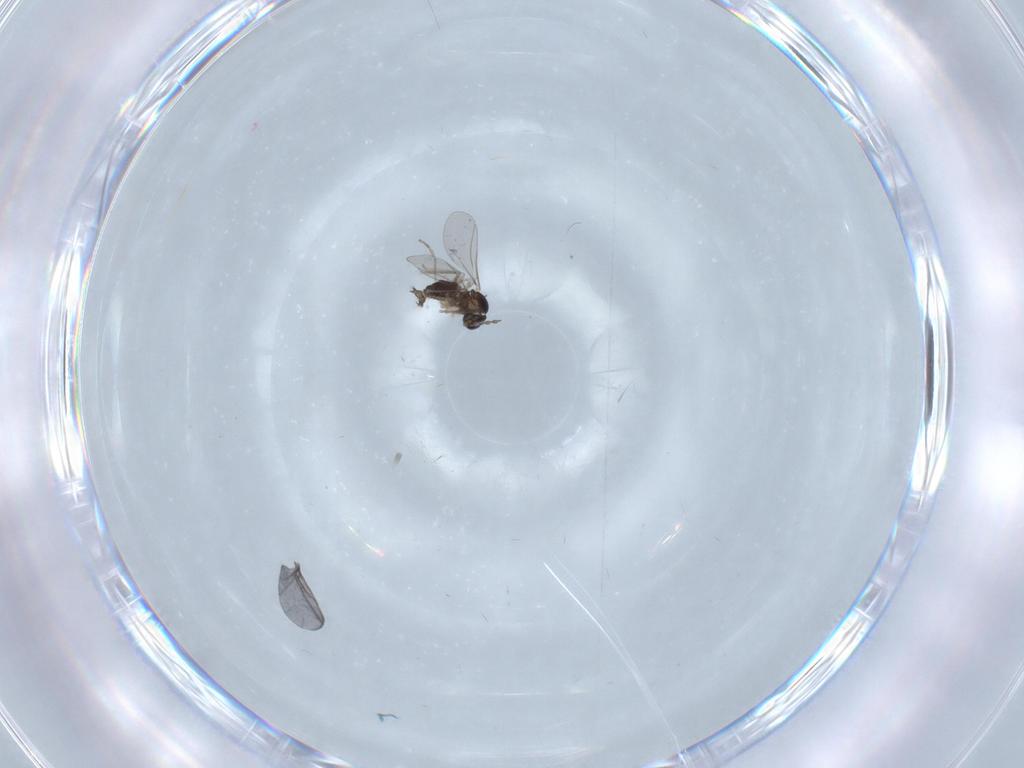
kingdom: Animalia
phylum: Arthropoda
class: Insecta
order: Diptera
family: Cecidomyiidae
